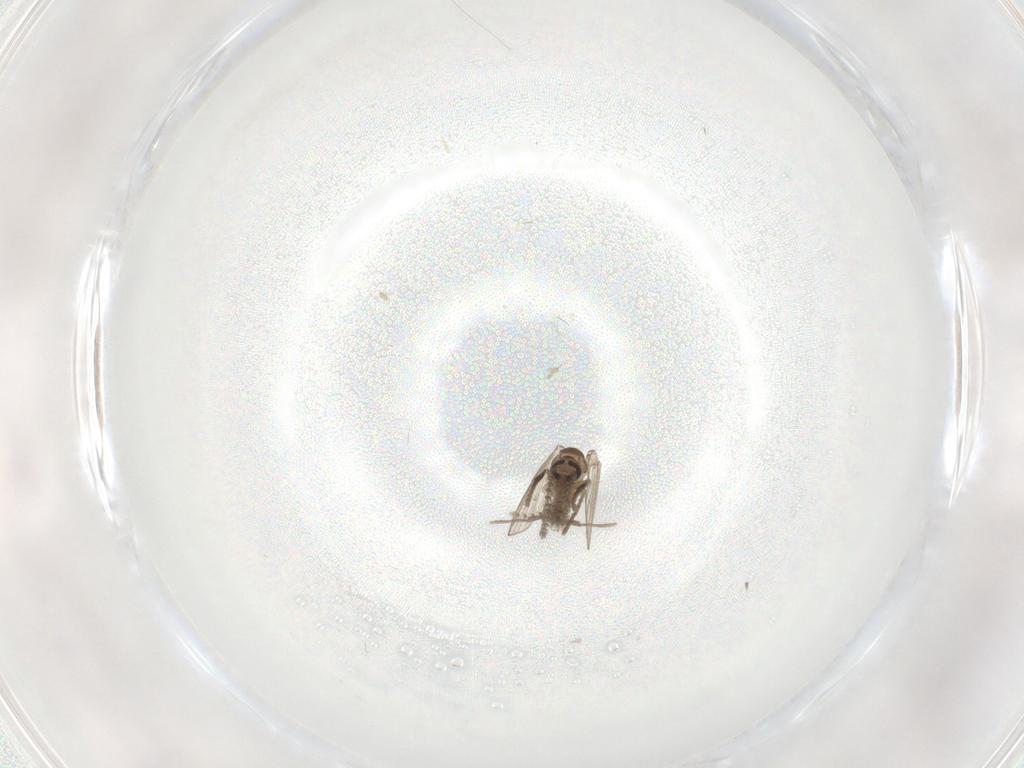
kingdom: Animalia
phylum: Arthropoda
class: Insecta
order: Diptera
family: Psychodidae
